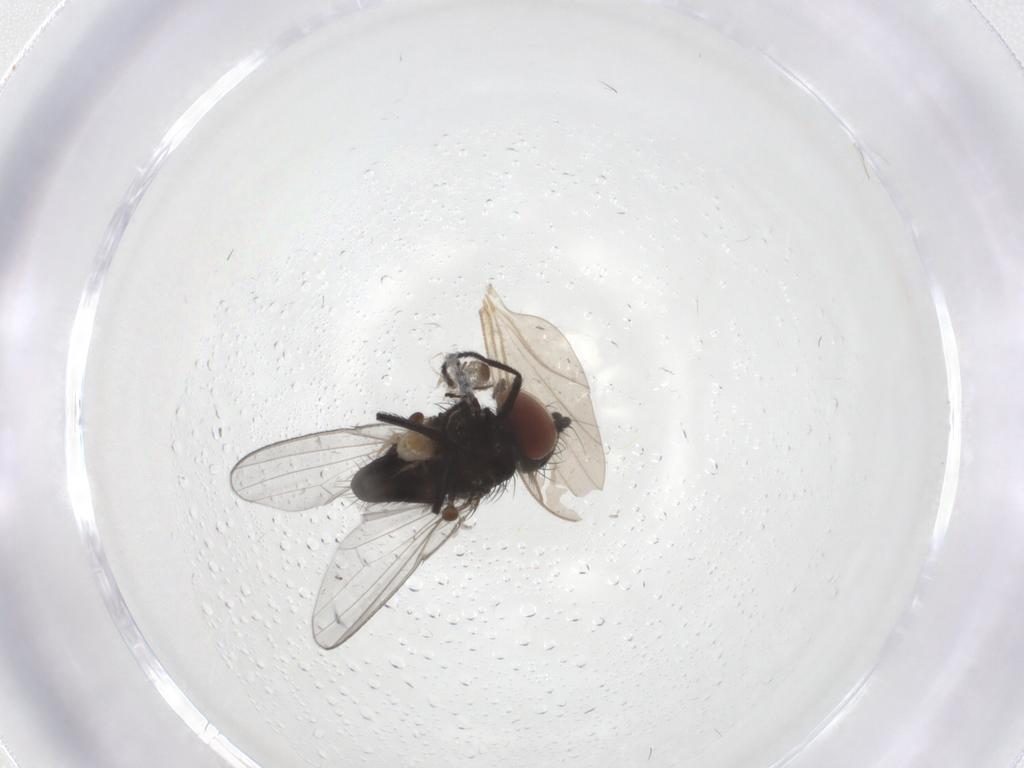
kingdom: Animalia
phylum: Arthropoda
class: Insecta
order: Diptera
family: Milichiidae
